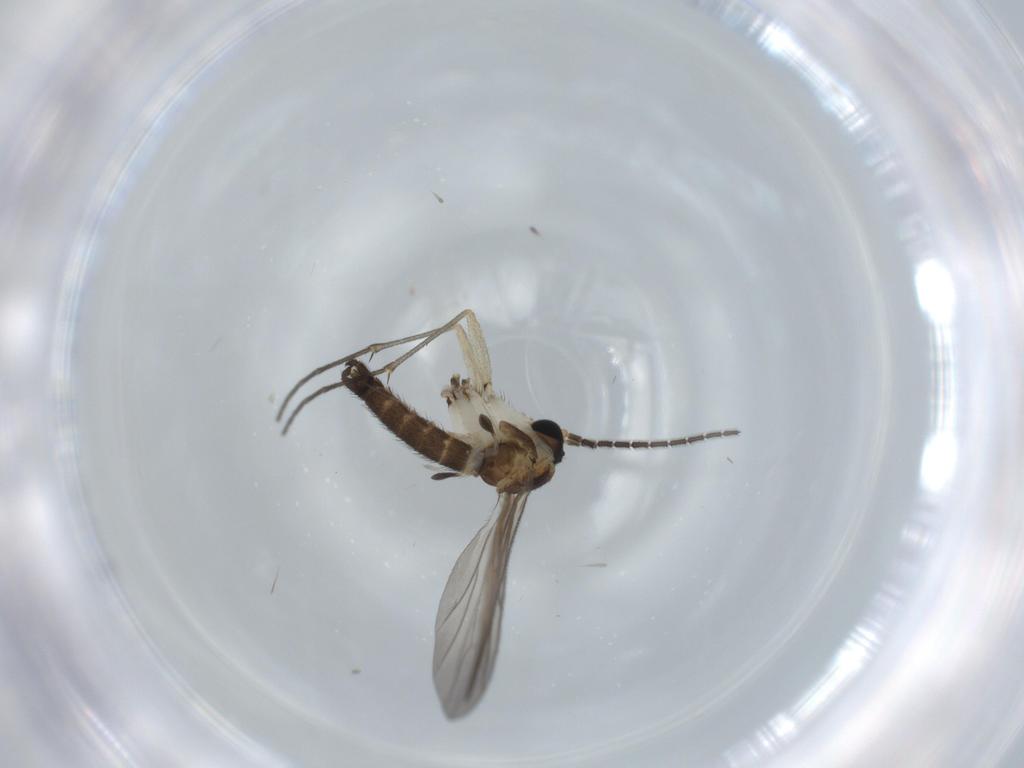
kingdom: Animalia
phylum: Arthropoda
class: Insecta
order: Diptera
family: Sciaridae
